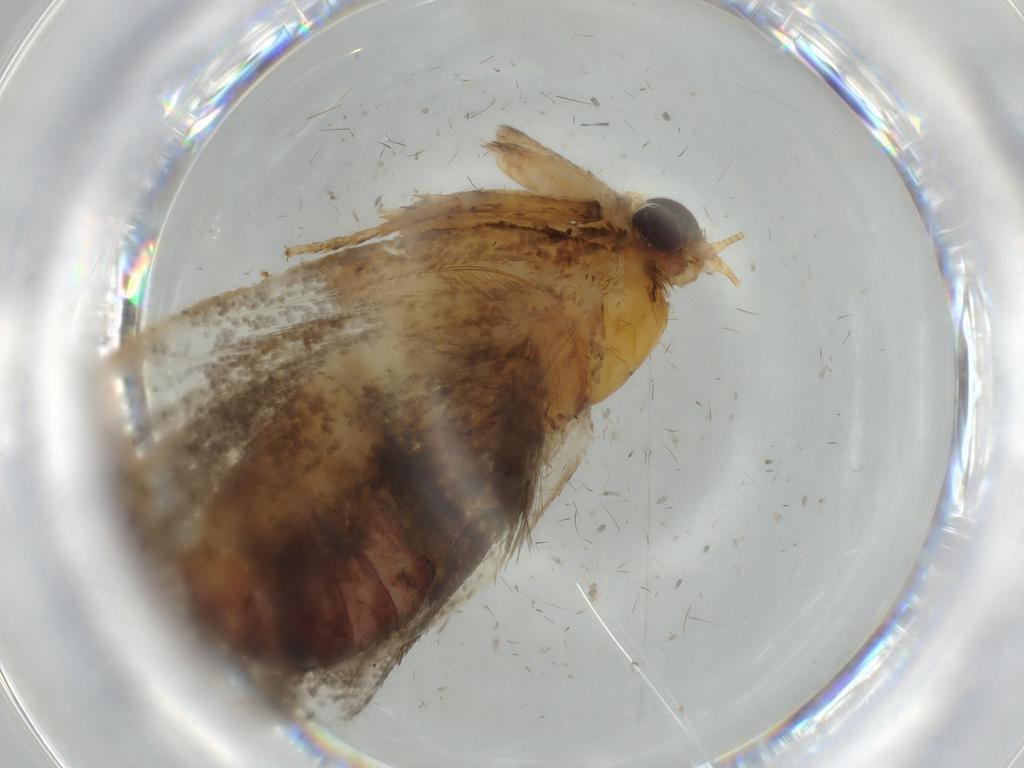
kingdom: Animalia
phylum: Arthropoda
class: Insecta
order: Lepidoptera
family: Tineidae
